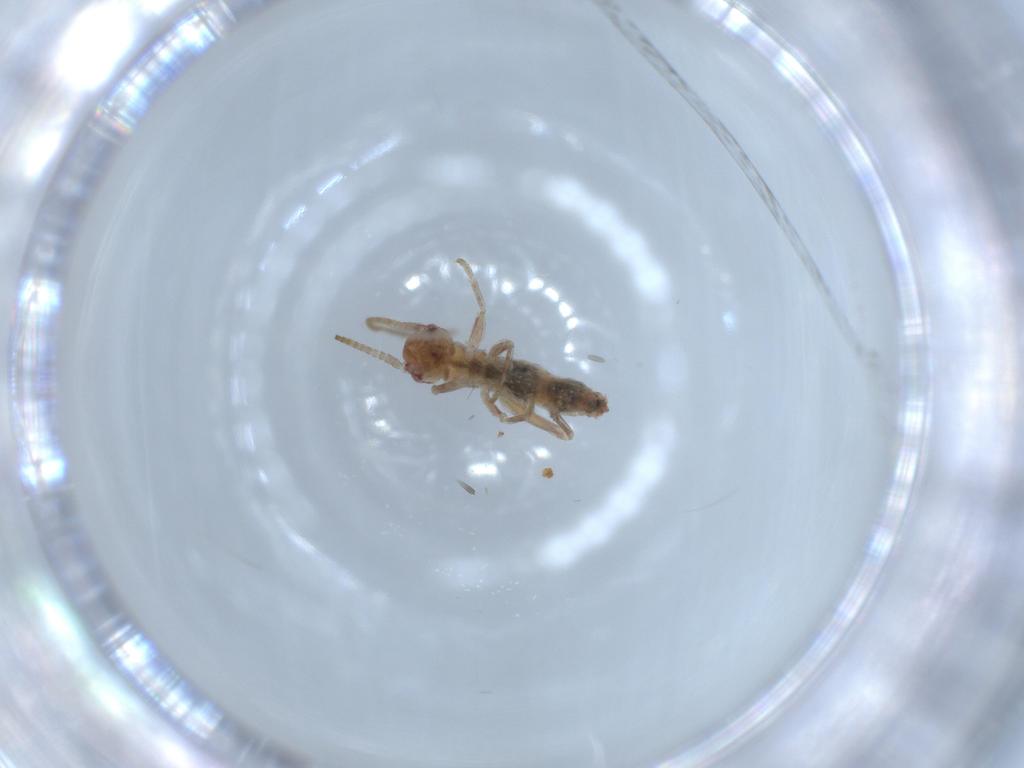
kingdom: Animalia
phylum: Arthropoda
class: Insecta
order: Orthoptera
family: Mogoplistidae
